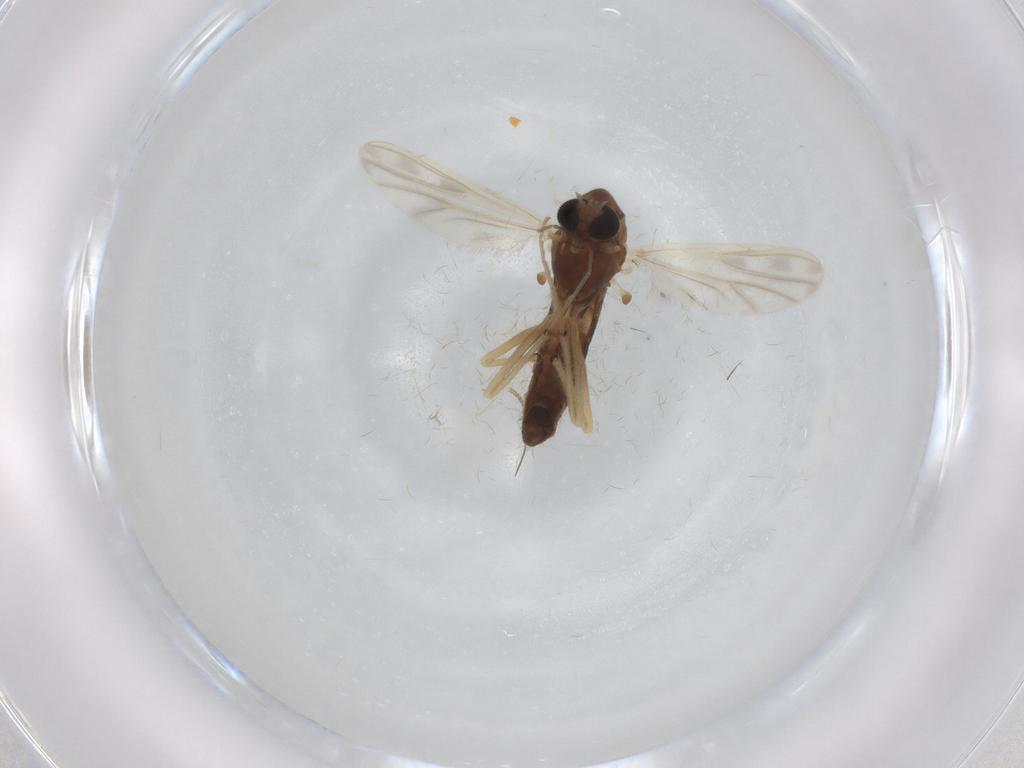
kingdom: Animalia
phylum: Arthropoda
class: Insecta
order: Diptera
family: Chironomidae
